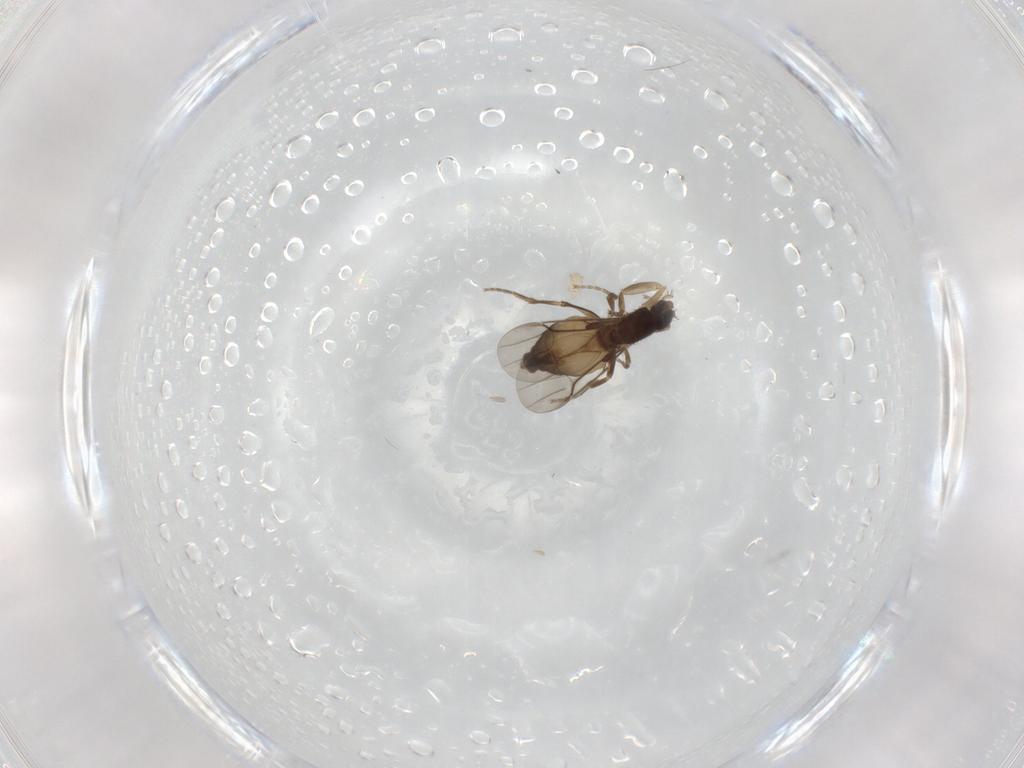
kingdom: Animalia
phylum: Arthropoda
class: Insecta
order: Diptera
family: Phoridae
